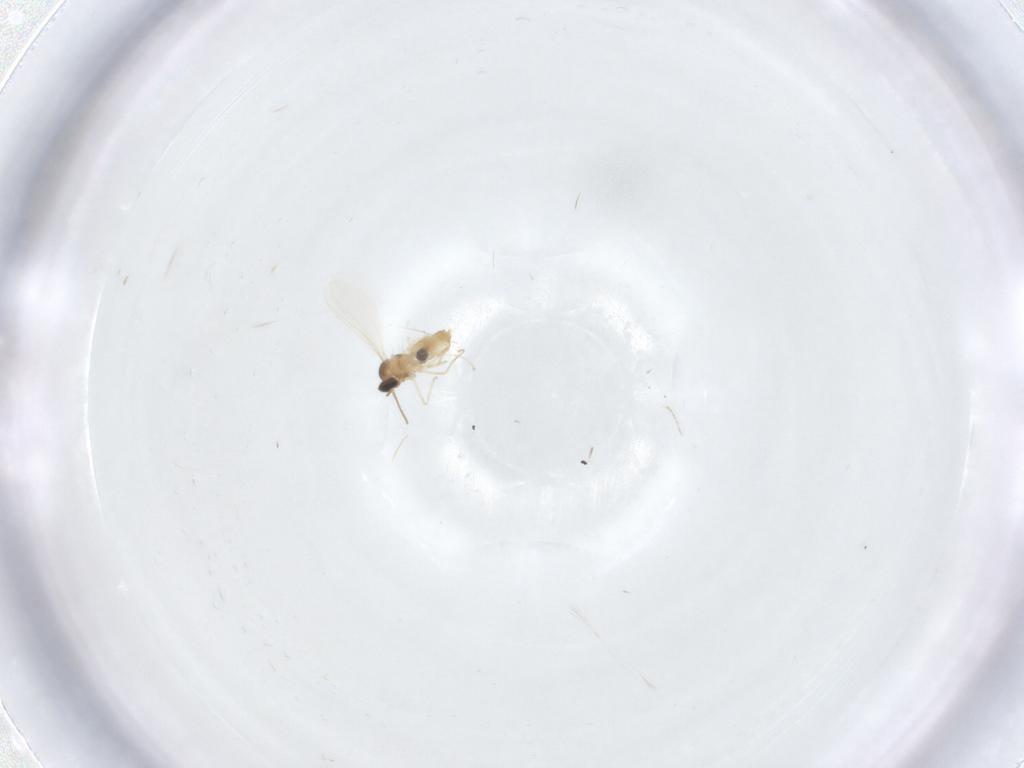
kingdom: Animalia
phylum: Arthropoda
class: Insecta
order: Diptera
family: Cecidomyiidae
